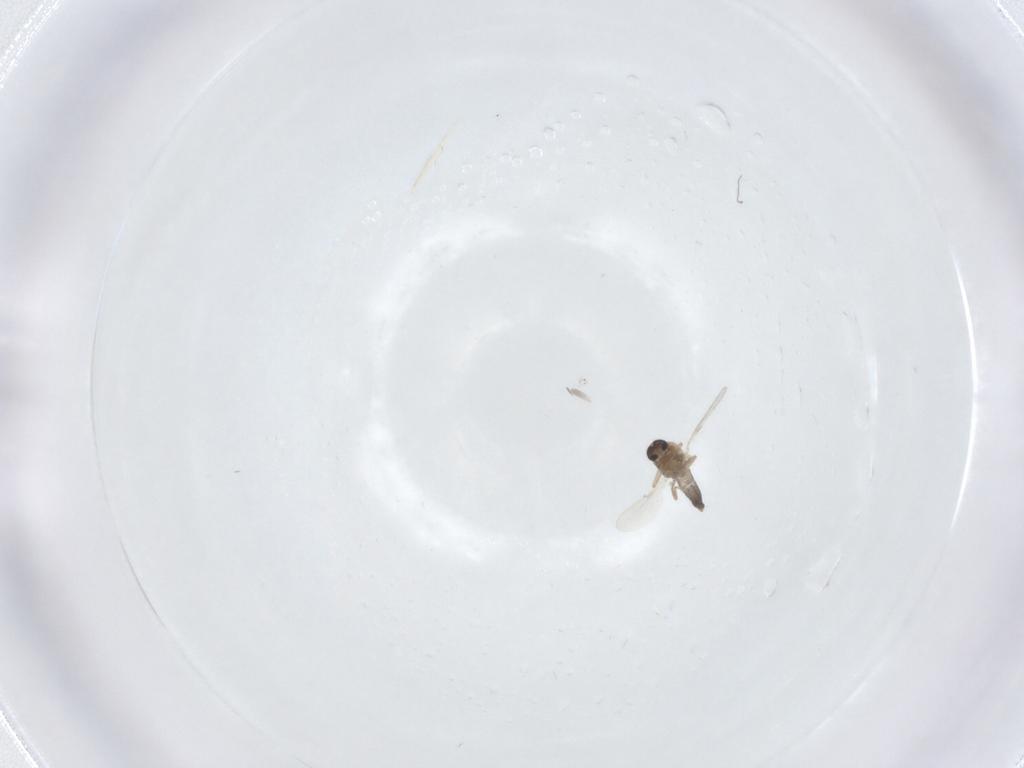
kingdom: Animalia
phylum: Arthropoda
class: Insecta
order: Diptera
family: Ceratopogonidae
